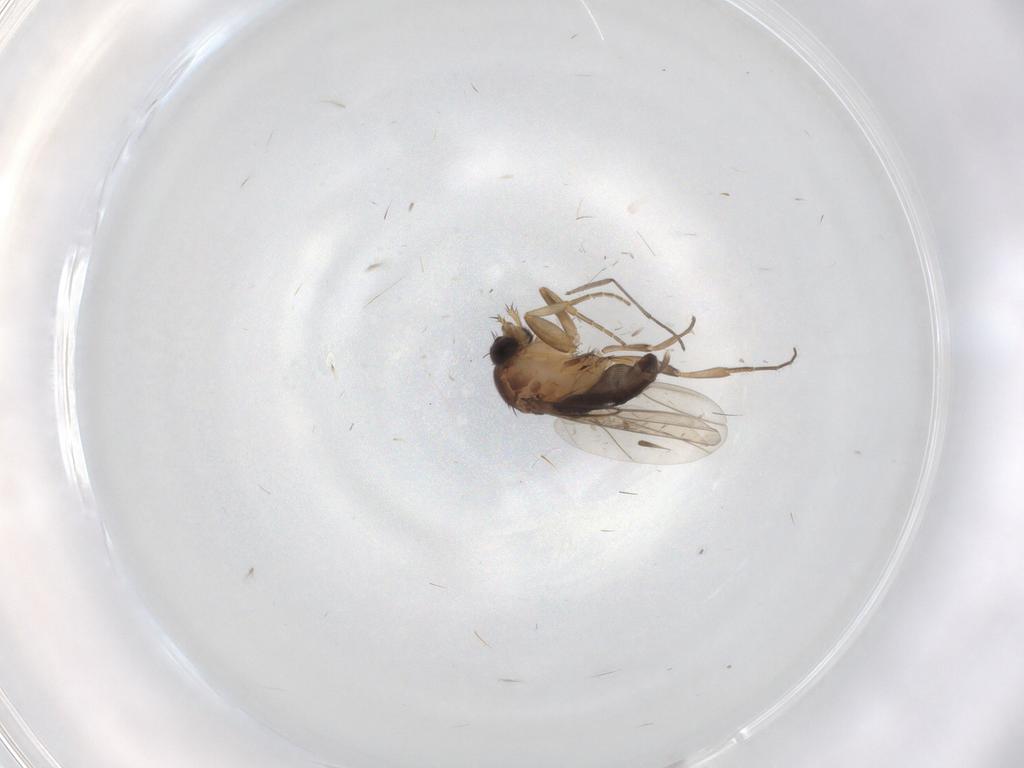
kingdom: Animalia
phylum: Arthropoda
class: Insecta
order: Diptera
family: Phoridae
